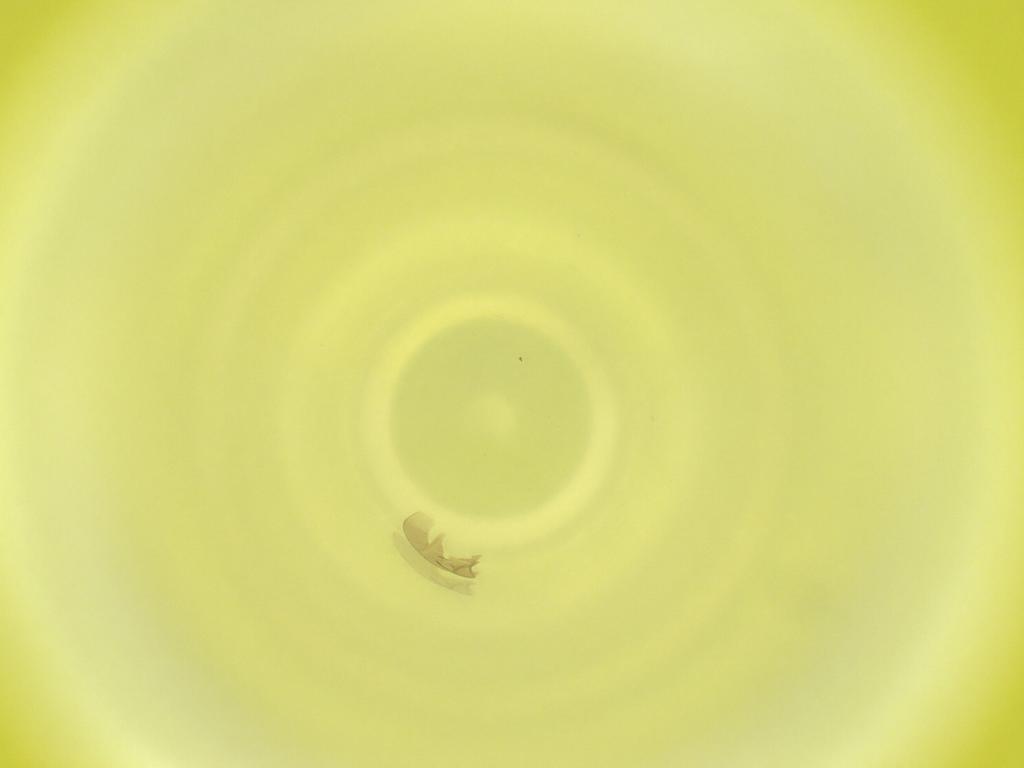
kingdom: Animalia
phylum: Arthropoda
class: Insecta
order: Diptera
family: Cecidomyiidae
